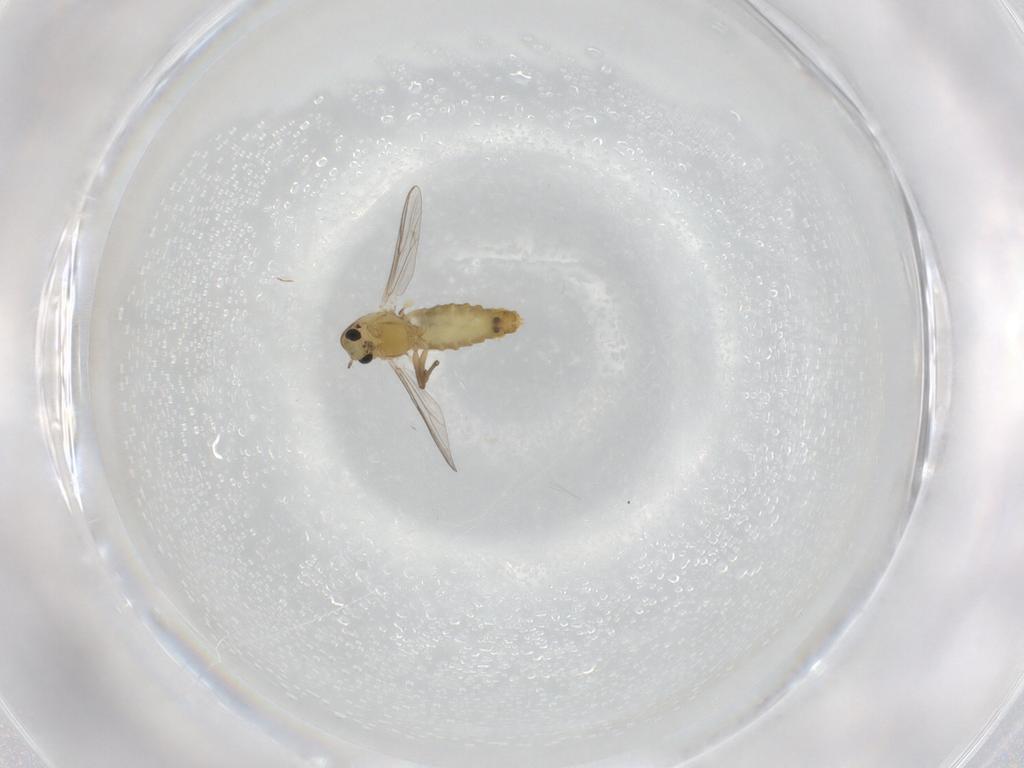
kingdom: Animalia
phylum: Arthropoda
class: Insecta
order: Diptera
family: Chironomidae
